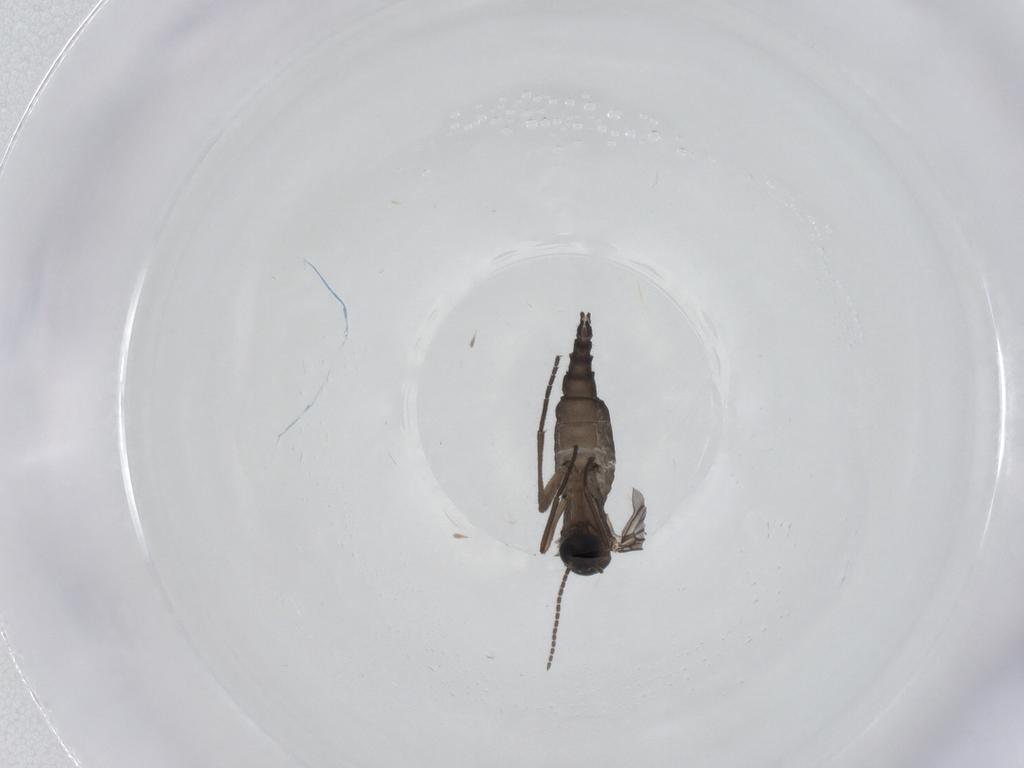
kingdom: Animalia
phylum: Arthropoda
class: Insecta
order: Diptera
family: Sciaridae
